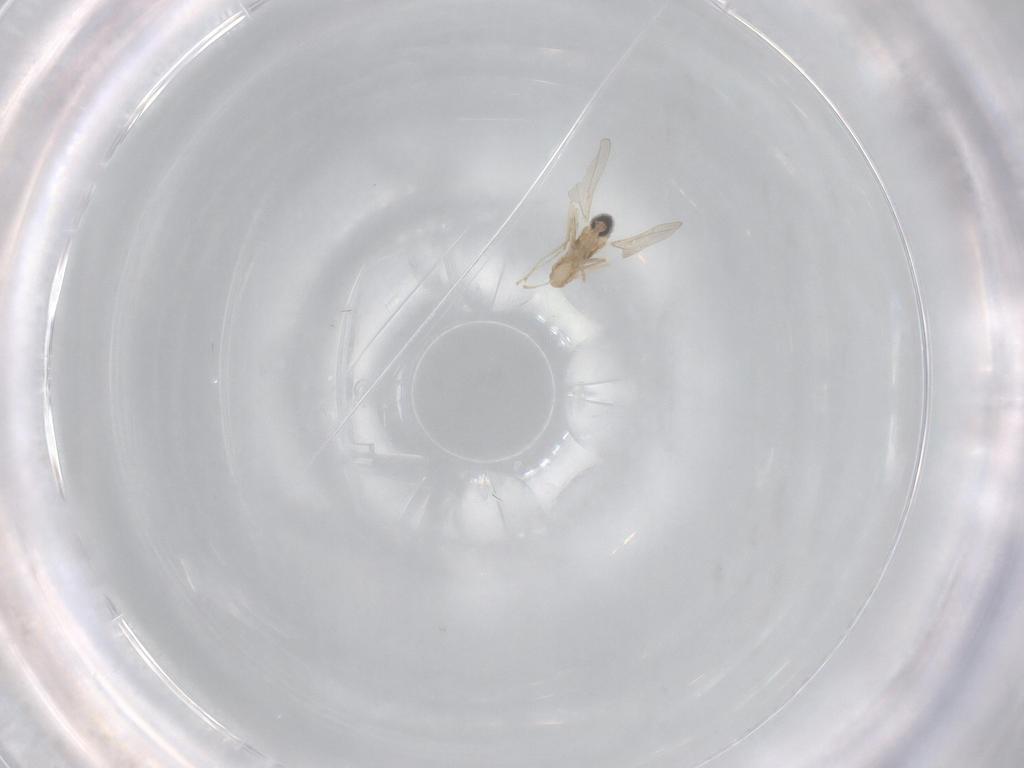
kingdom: Animalia
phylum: Arthropoda
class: Insecta
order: Diptera
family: Cecidomyiidae
